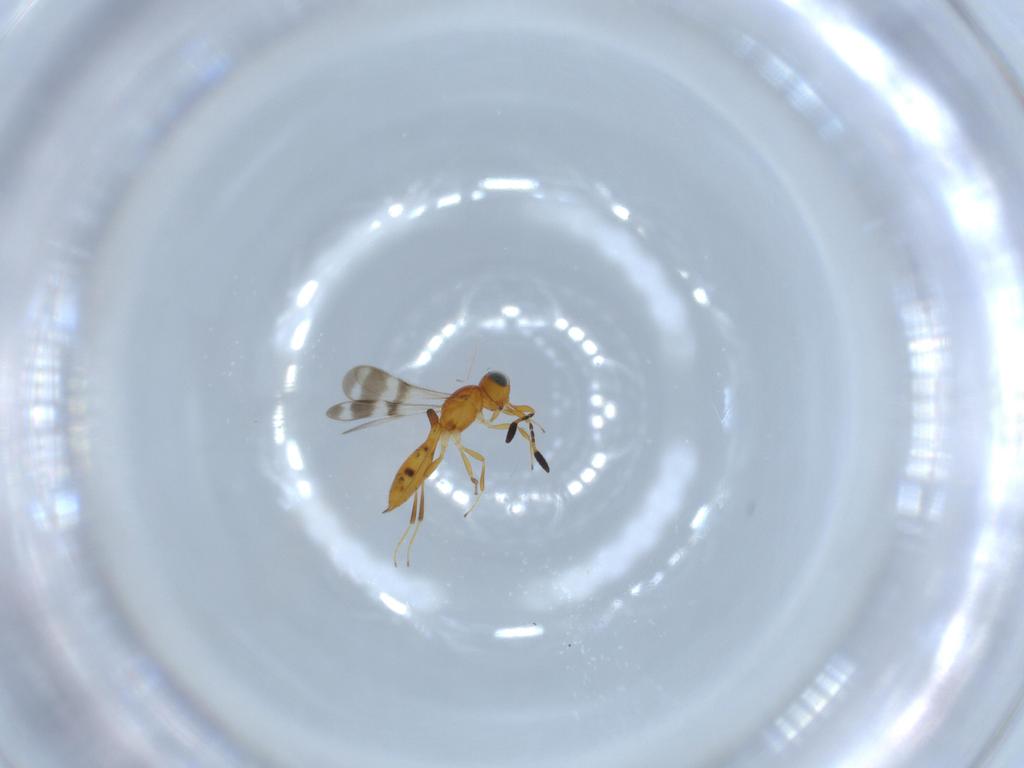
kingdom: Animalia
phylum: Arthropoda
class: Insecta
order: Hymenoptera
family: Scelionidae
